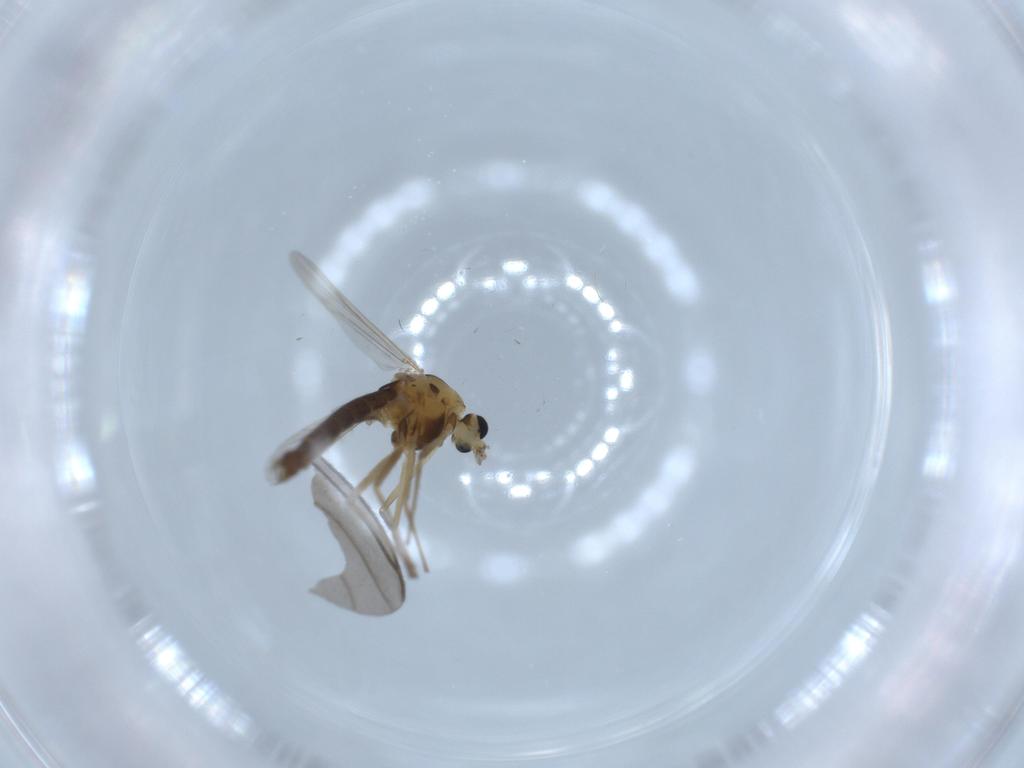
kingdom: Animalia
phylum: Arthropoda
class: Insecta
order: Diptera
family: Chironomidae
